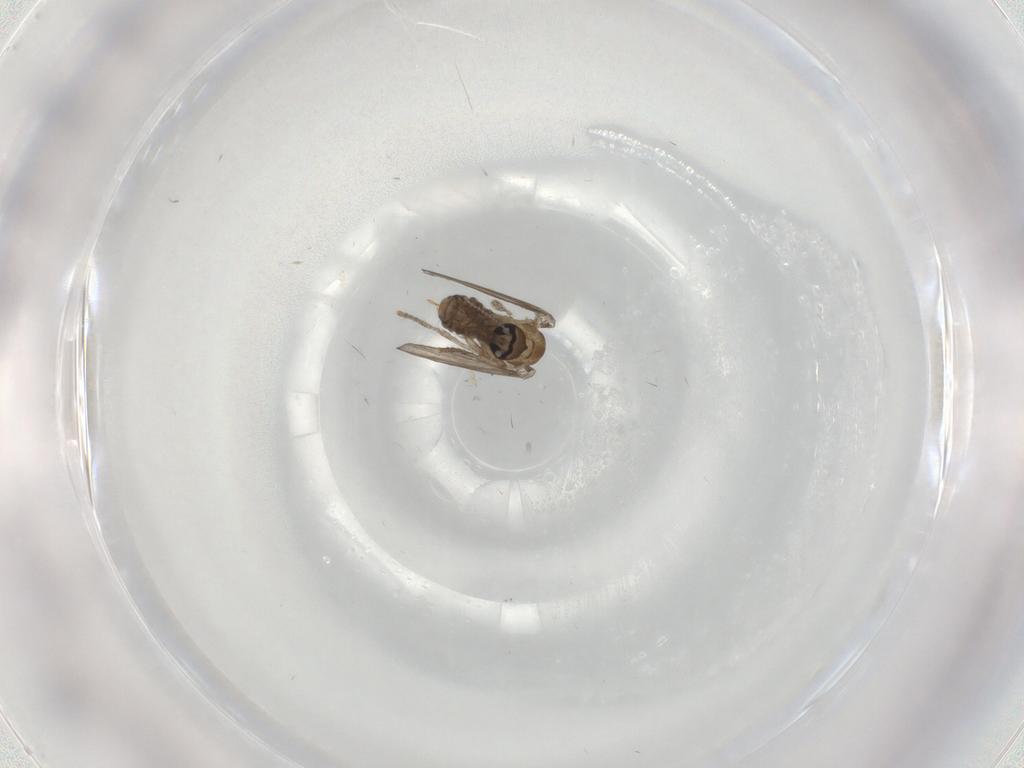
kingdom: Animalia
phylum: Arthropoda
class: Insecta
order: Diptera
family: Psychodidae
